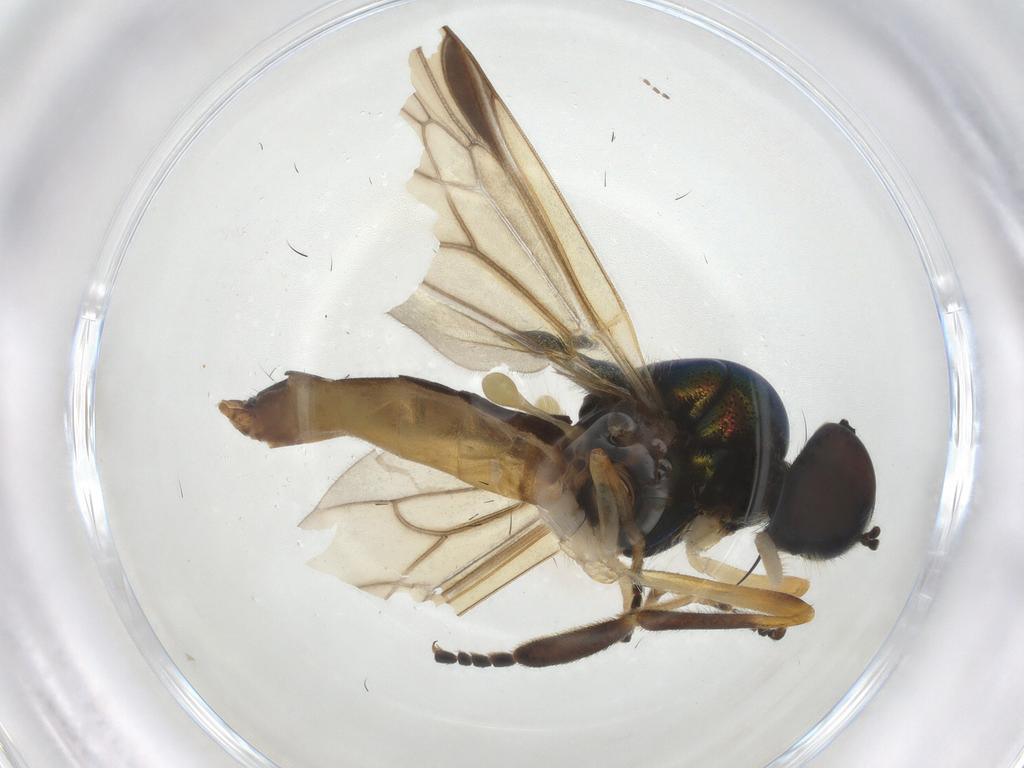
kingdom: Animalia
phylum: Arthropoda
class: Insecta
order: Diptera
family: Stratiomyidae
